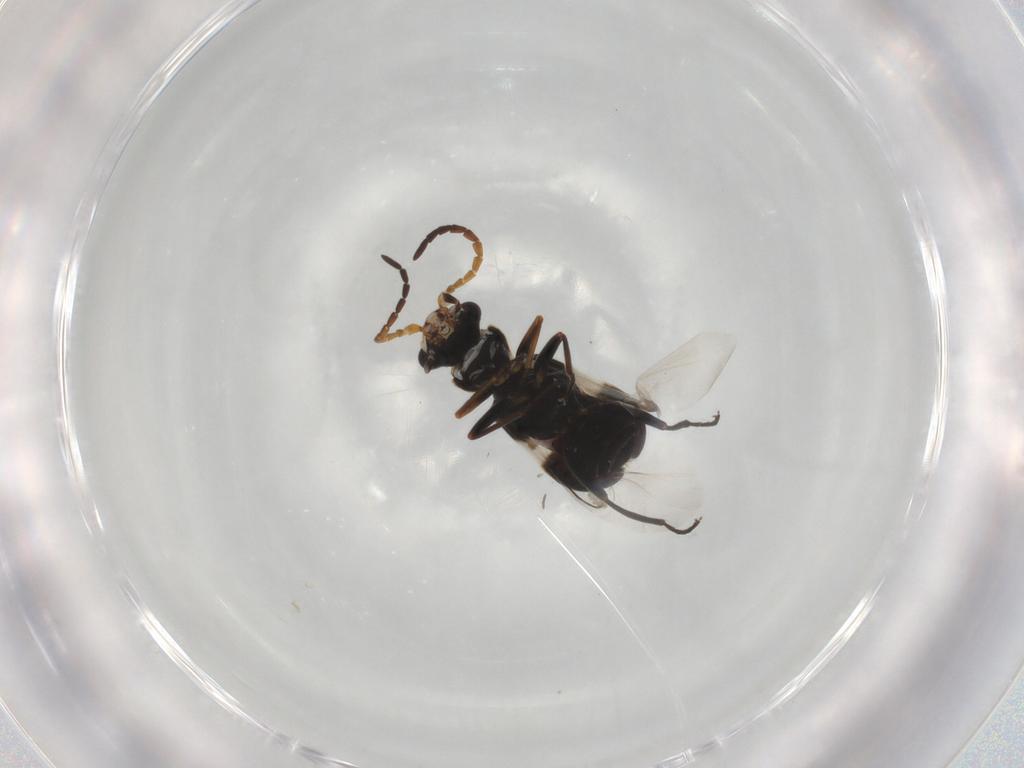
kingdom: Animalia
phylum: Arthropoda
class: Insecta
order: Coleoptera
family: Melyridae
